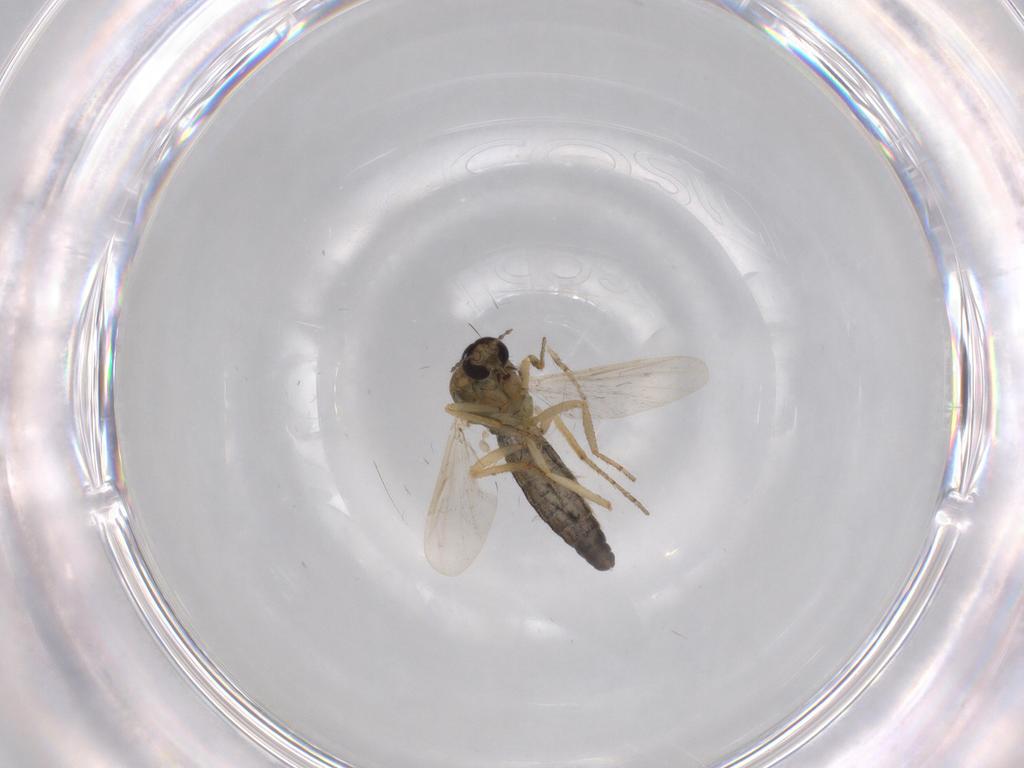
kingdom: Animalia
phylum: Arthropoda
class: Insecta
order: Diptera
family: Ceratopogonidae
